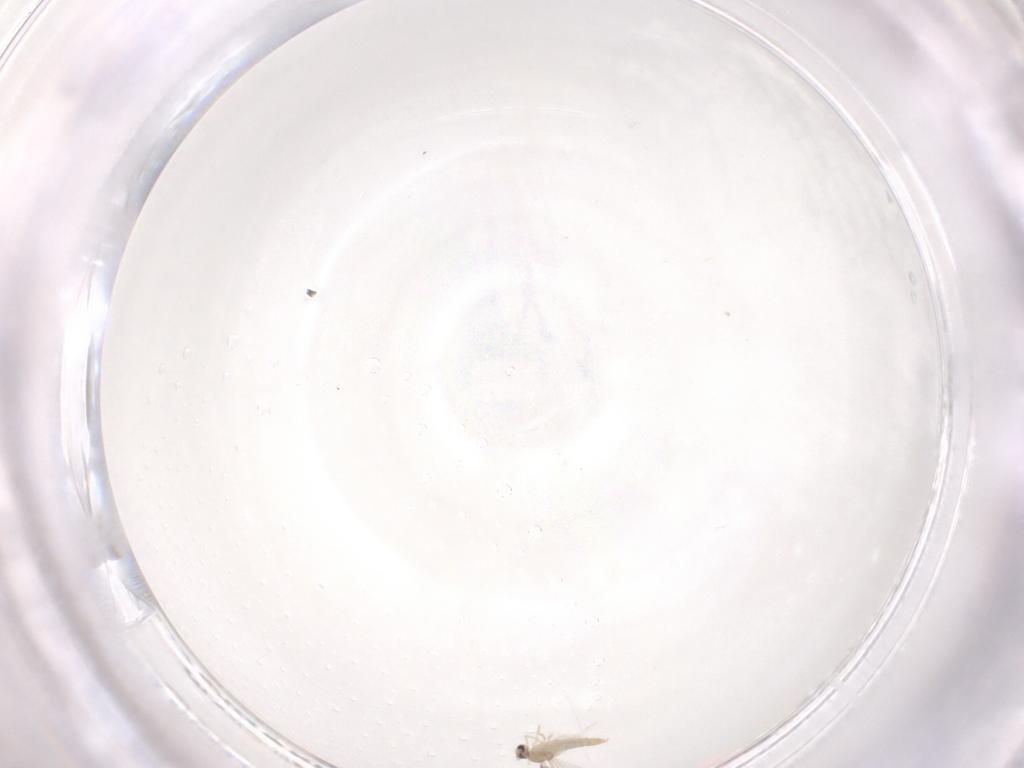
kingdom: Animalia
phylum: Arthropoda
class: Insecta
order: Diptera
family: Cecidomyiidae
